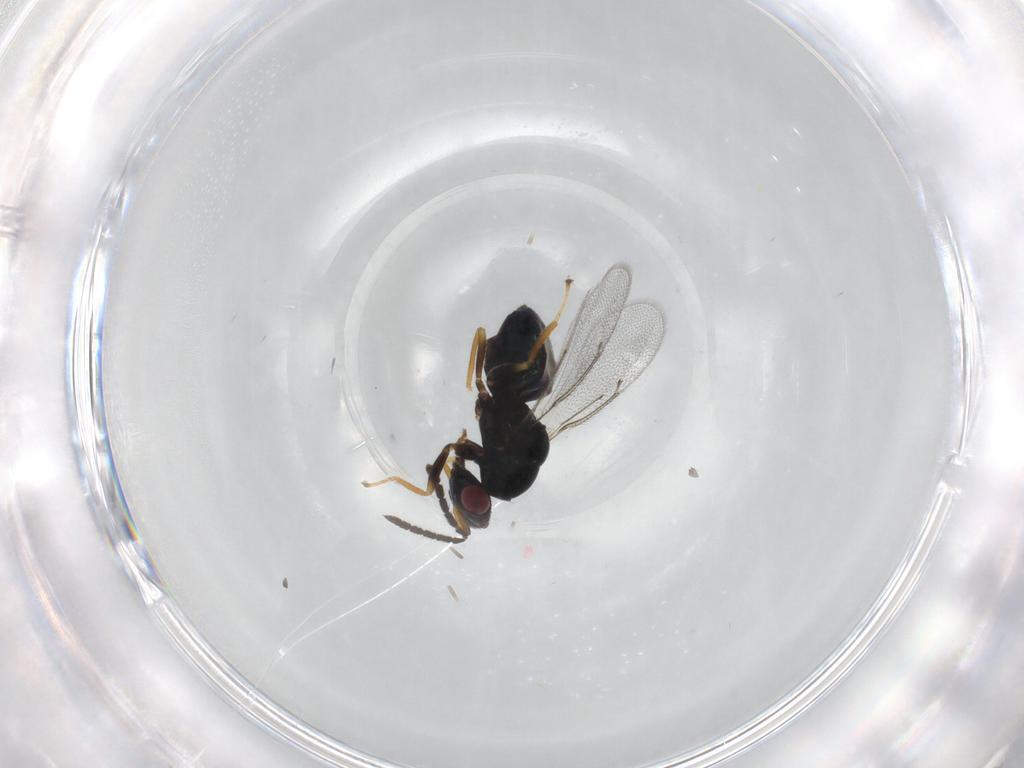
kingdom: Animalia
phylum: Arthropoda
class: Insecta
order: Hymenoptera
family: Eulophidae
